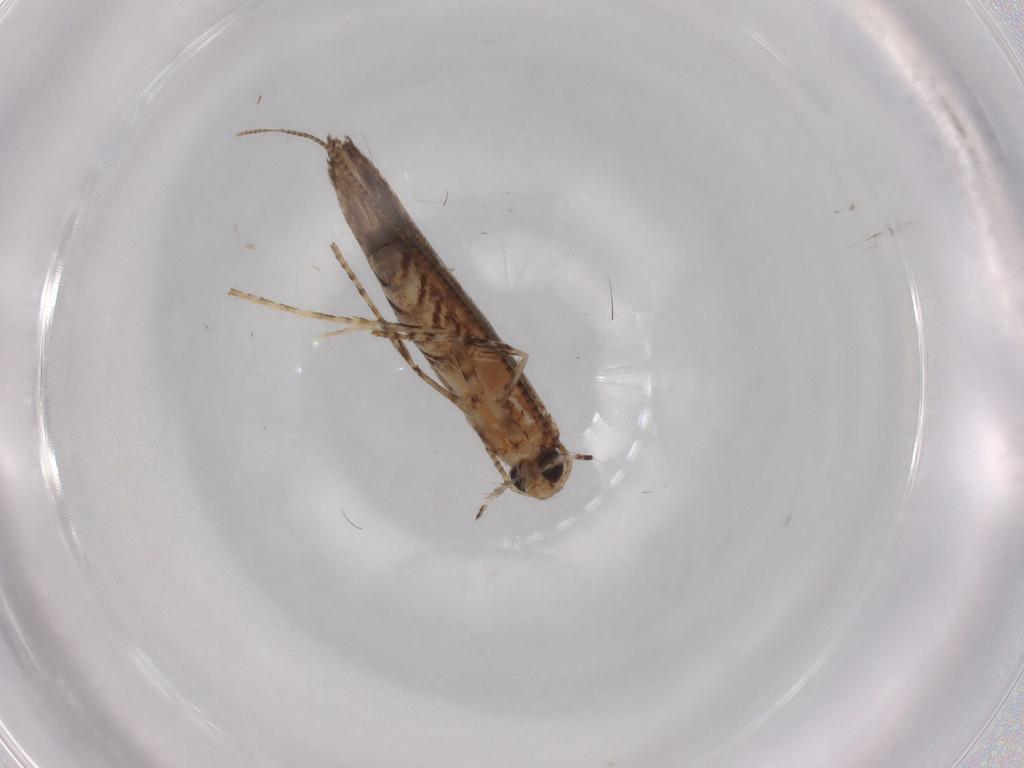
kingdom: Animalia
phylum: Arthropoda
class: Insecta
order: Lepidoptera
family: Gracillariidae
